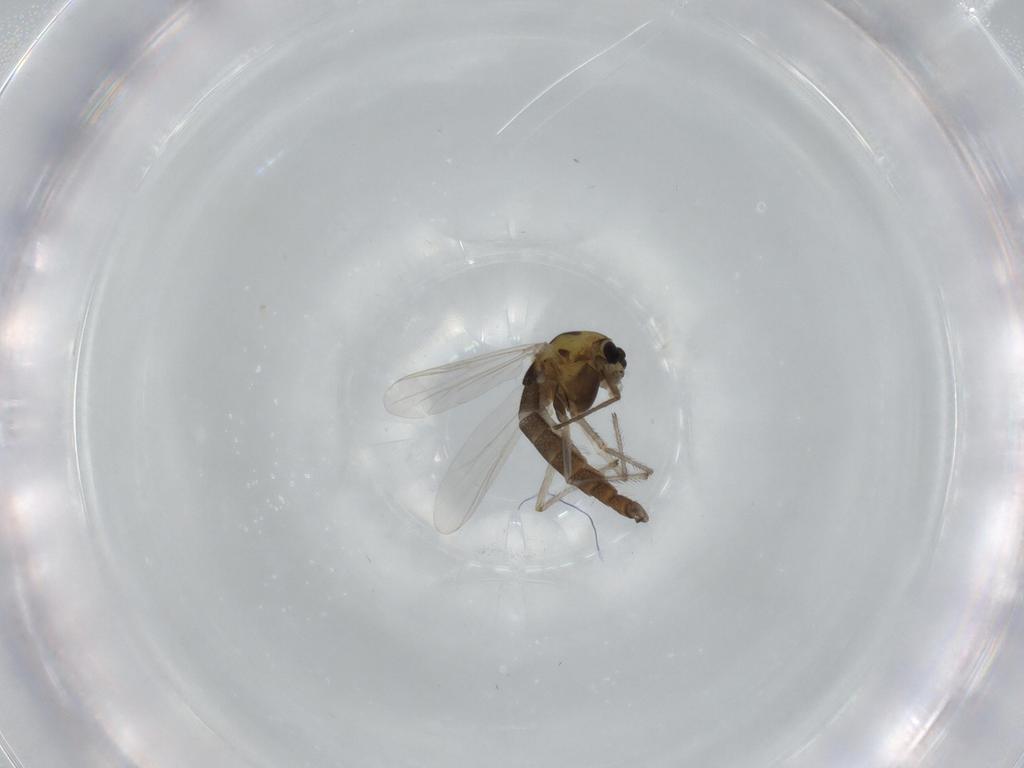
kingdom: Animalia
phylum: Arthropoda
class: Insecta
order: Diptera
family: Chironomidae
